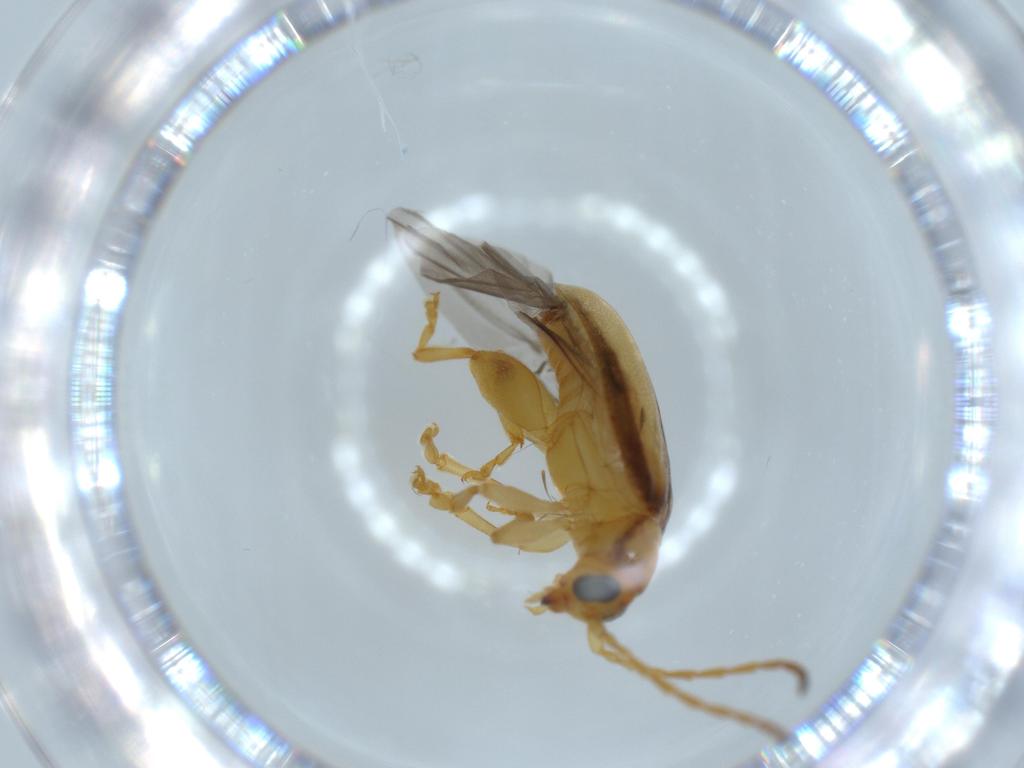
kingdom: Animalia
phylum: Arthropoda
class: Insecta
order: Coleoptera
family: Chrysomelidae
